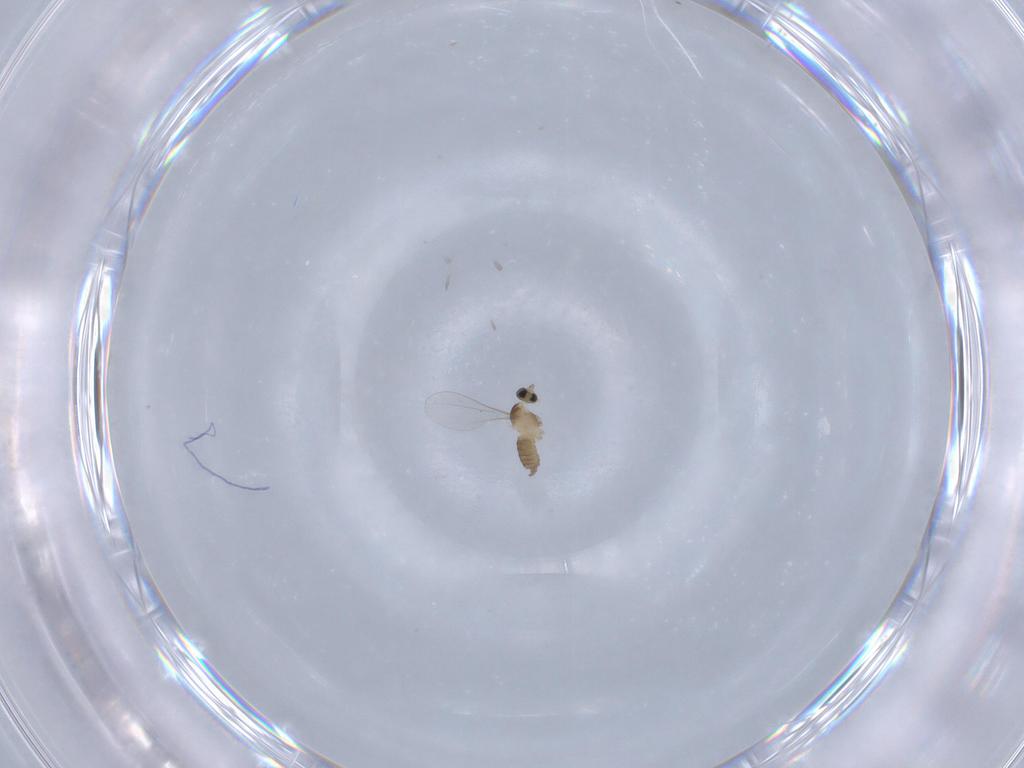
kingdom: Animalia
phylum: Arthropoda
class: Insecta
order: Diptera
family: Cecidomyiidae
